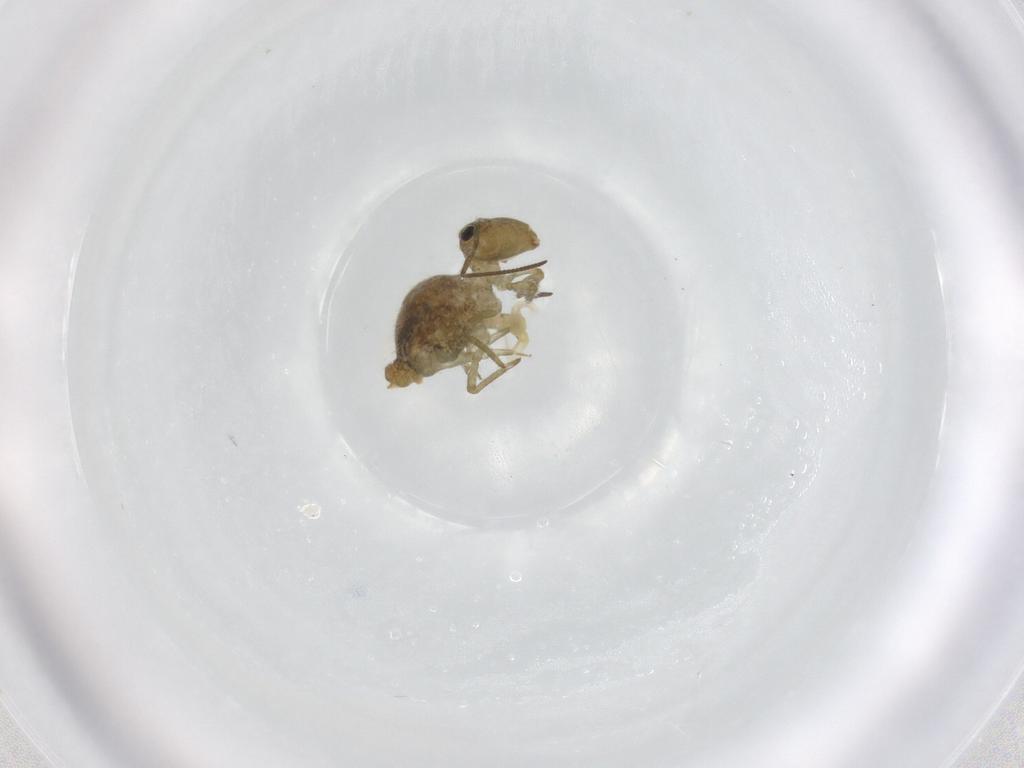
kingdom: Animalia
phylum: Arthropoda
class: Collembola
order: Symphypleona
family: Sminthuridae
